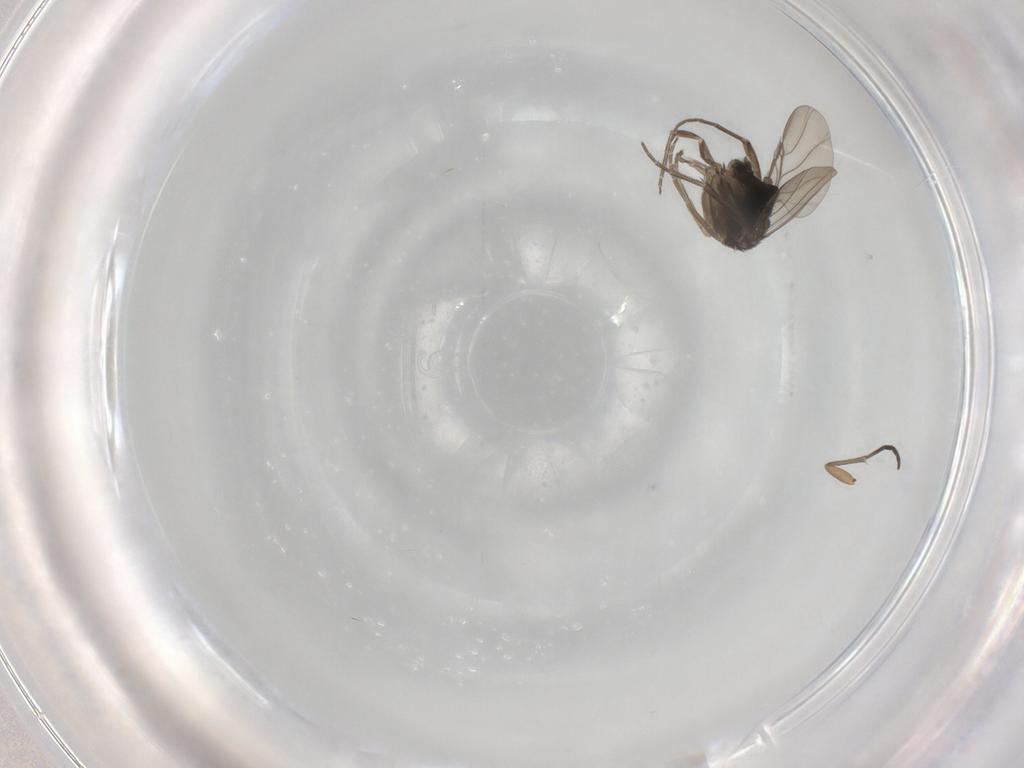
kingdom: Animalia
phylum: Arthropoda
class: Insecta
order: Diptera
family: Phoridae
